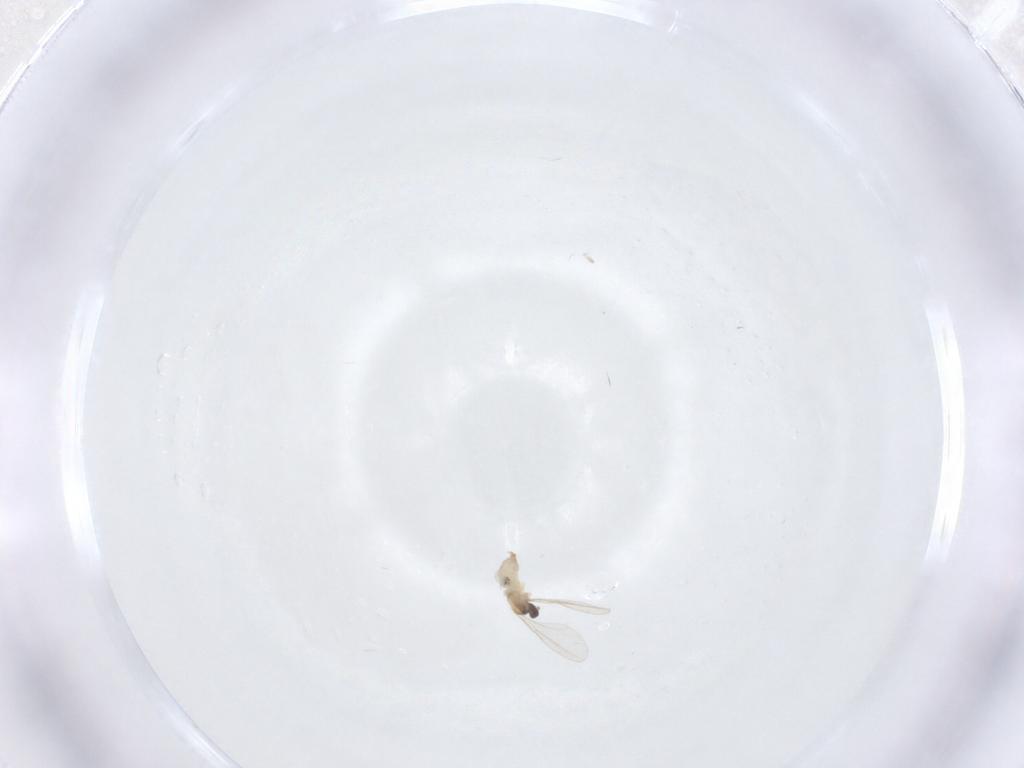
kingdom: Animalia
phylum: Arthropoda
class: Insecta
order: Diptera
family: Cecidomyiidae
